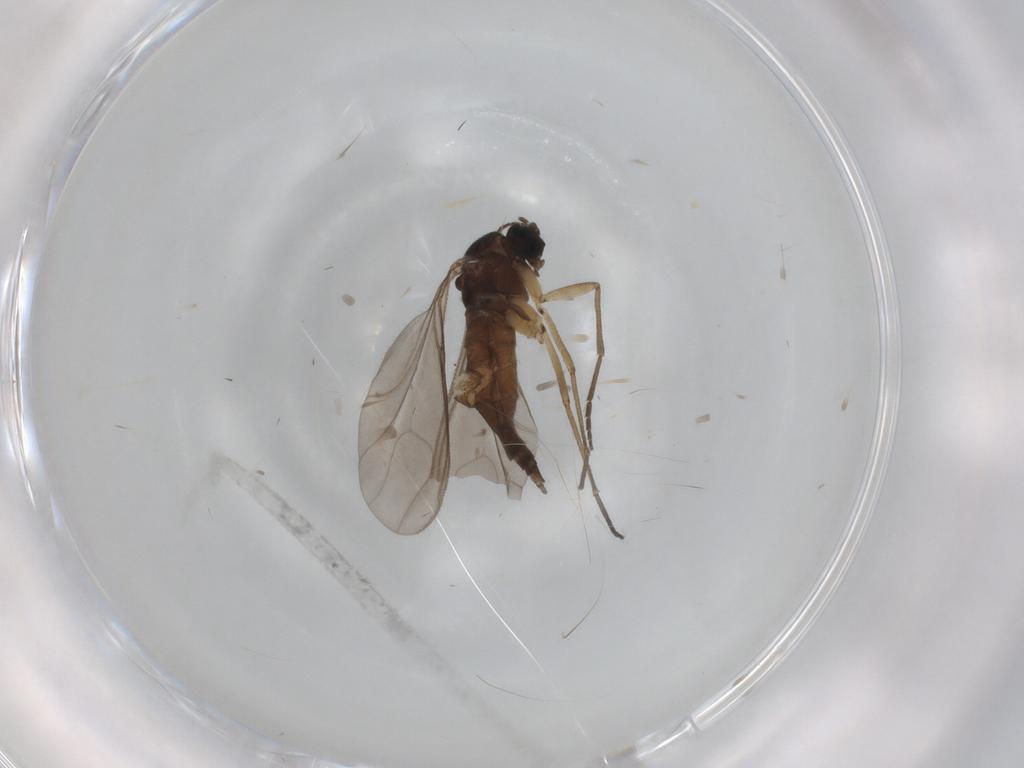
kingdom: Animalia
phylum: Arthropoda
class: Insecta
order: Diptera
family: Sciaridae
